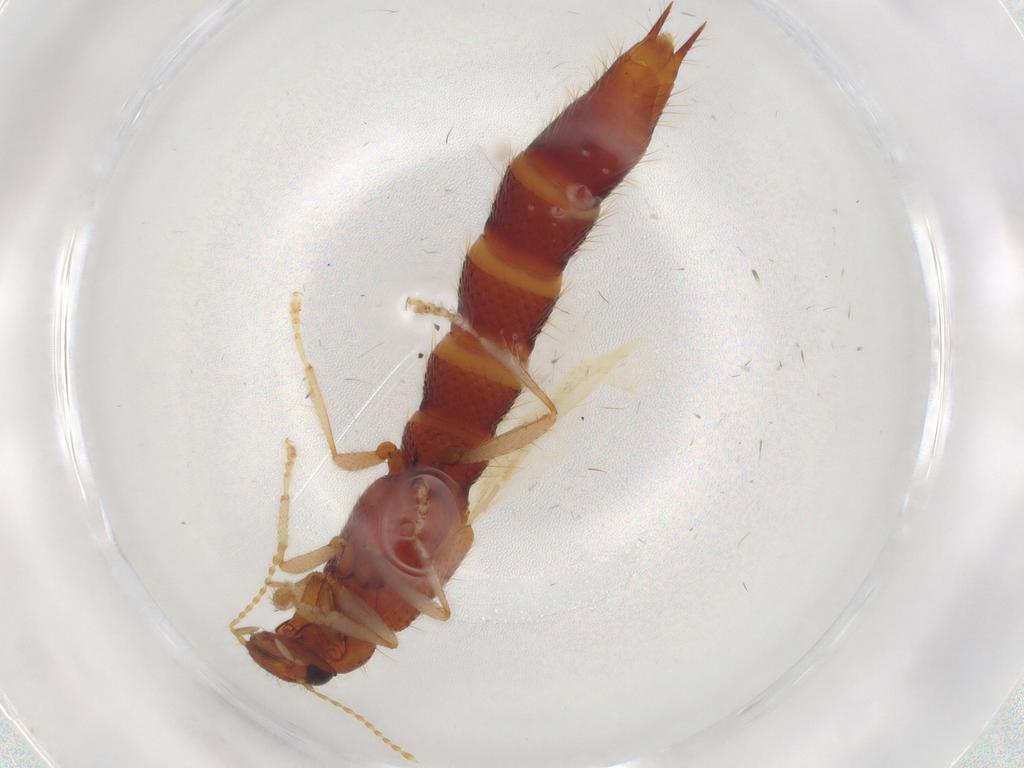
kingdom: Animalia
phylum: Arthropoda
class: Insecta
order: Coleoptera
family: Staphylinidae
